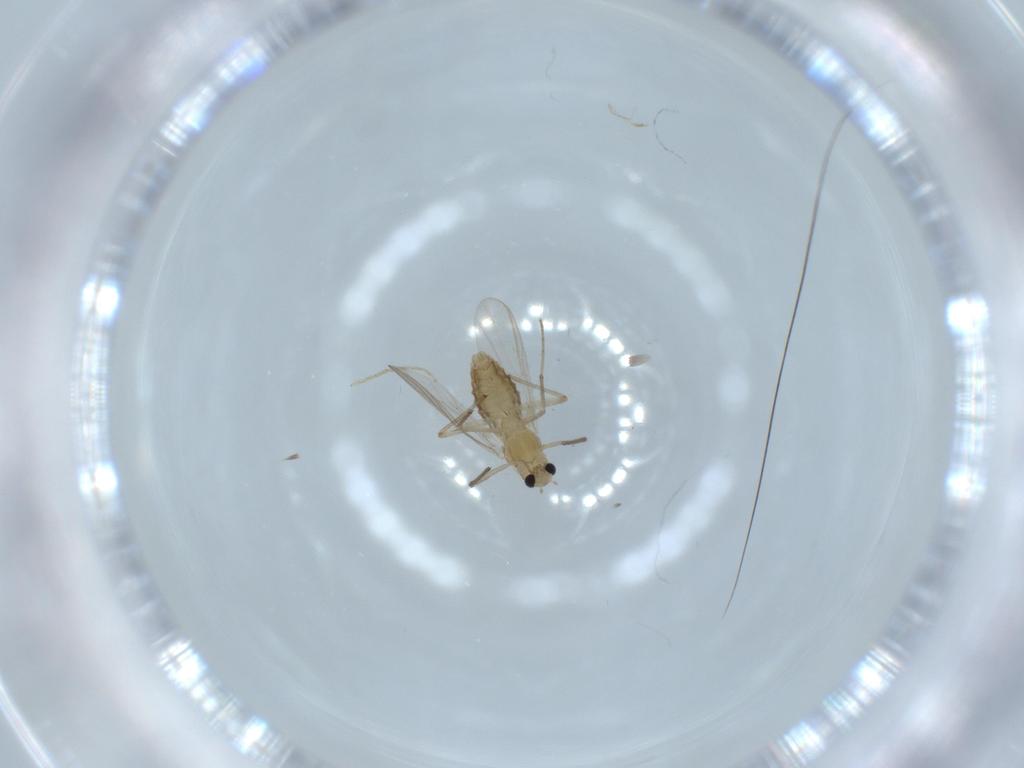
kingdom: Animalia
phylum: Arthropoda
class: Insecta
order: Diptera
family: Chironomidae
